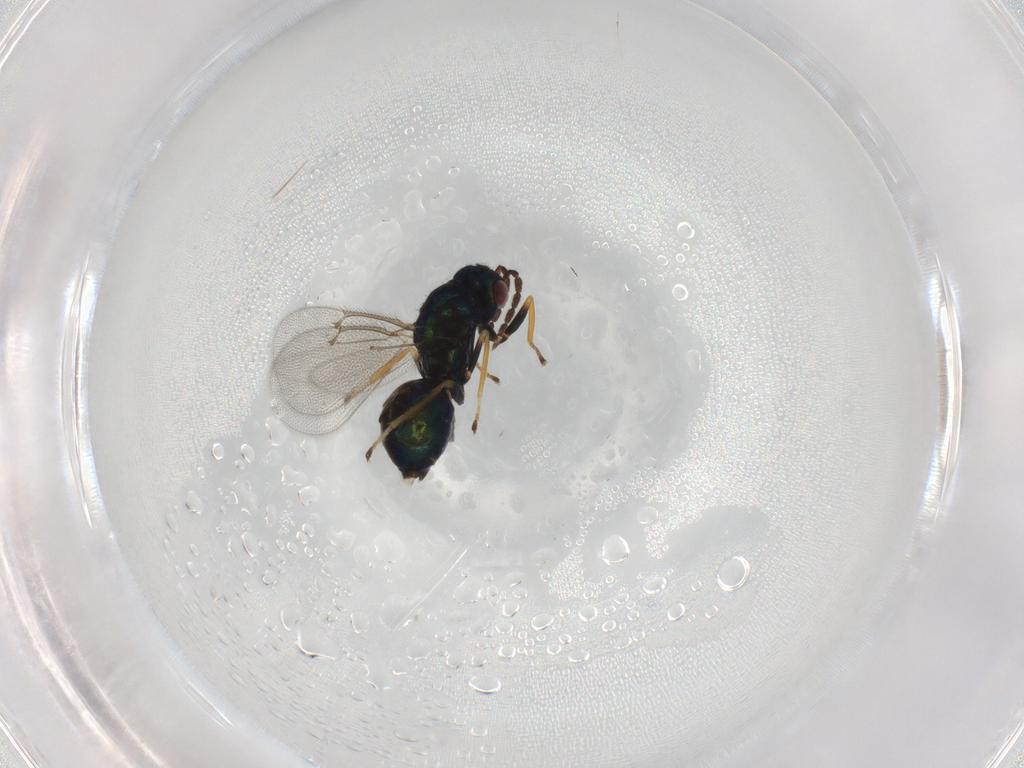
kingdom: Animalia
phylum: Arthropoda
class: Insecta
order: Hymenoptera
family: Eulophidae
